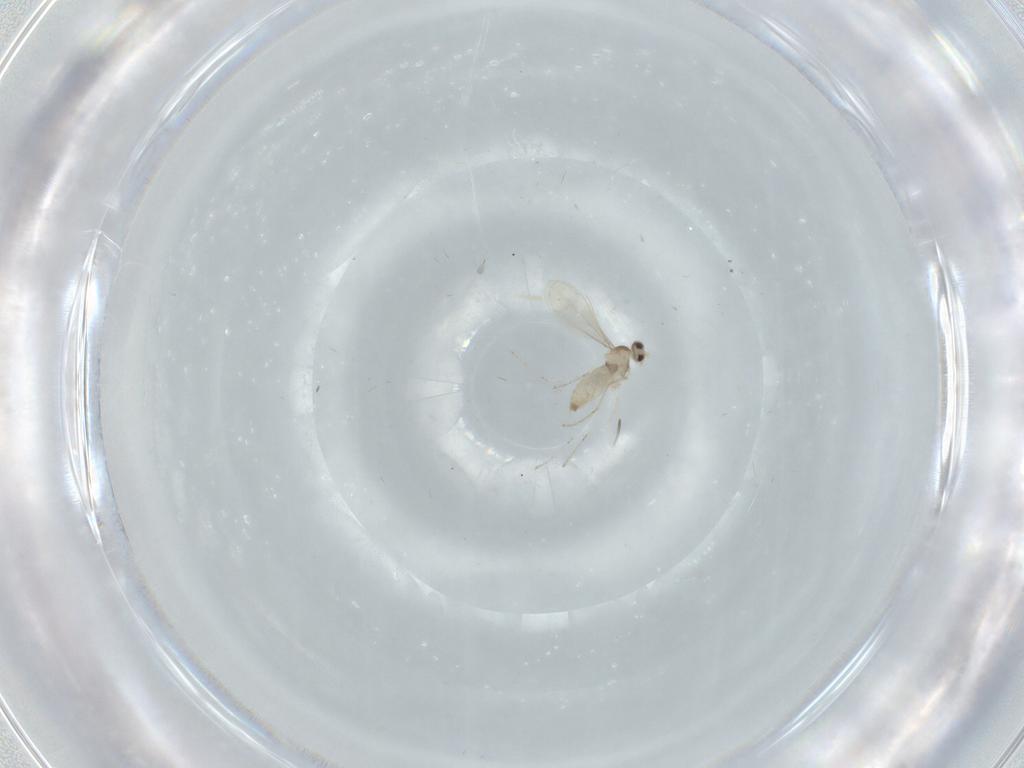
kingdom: Animalia
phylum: Arthropoda
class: Insecta
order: Diptera
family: Cecidomyiidae
